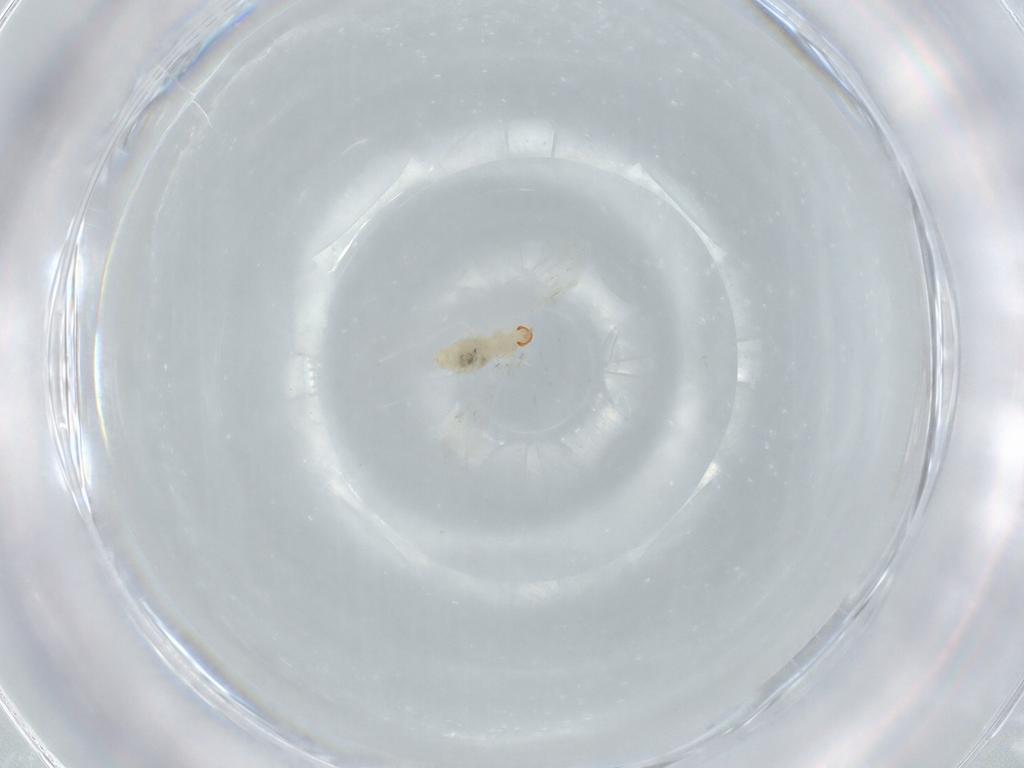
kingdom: Animalia
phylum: Arthropoda
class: Insecta
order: Diptera
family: Cecidomyiidae
